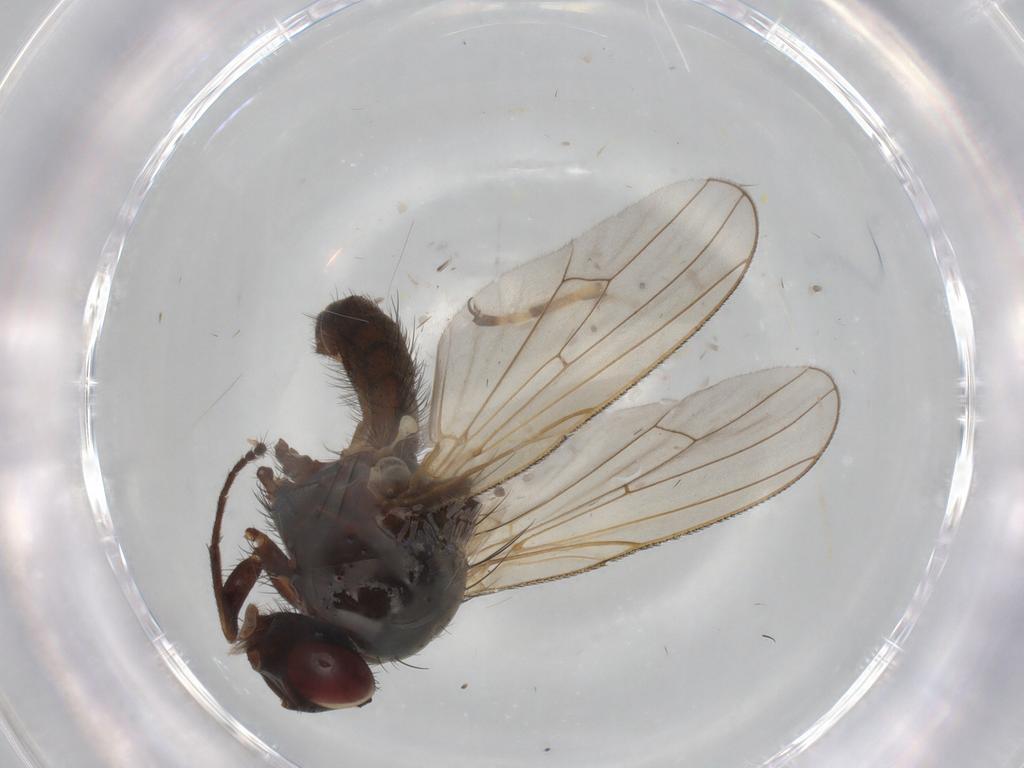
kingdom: Animalia
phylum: Arthropoda
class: Insecta
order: Diptera
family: Anthomyiidae
